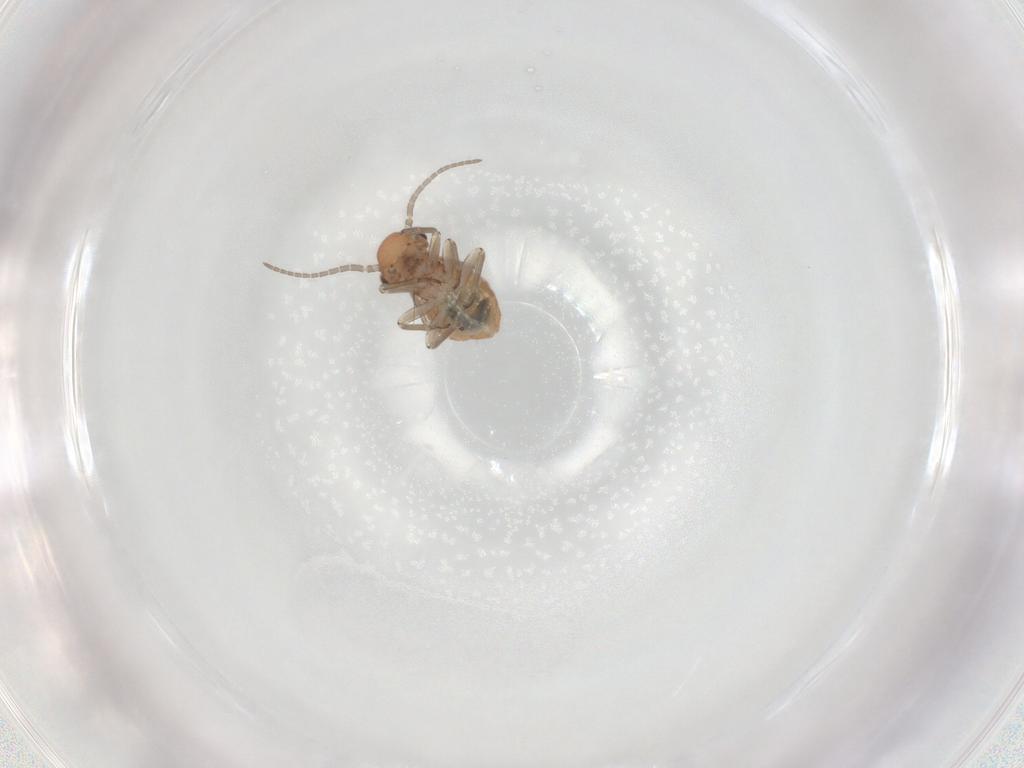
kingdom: Animalia
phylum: Arthropoda
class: Insecta
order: Psocodea
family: Caeciliusidae
